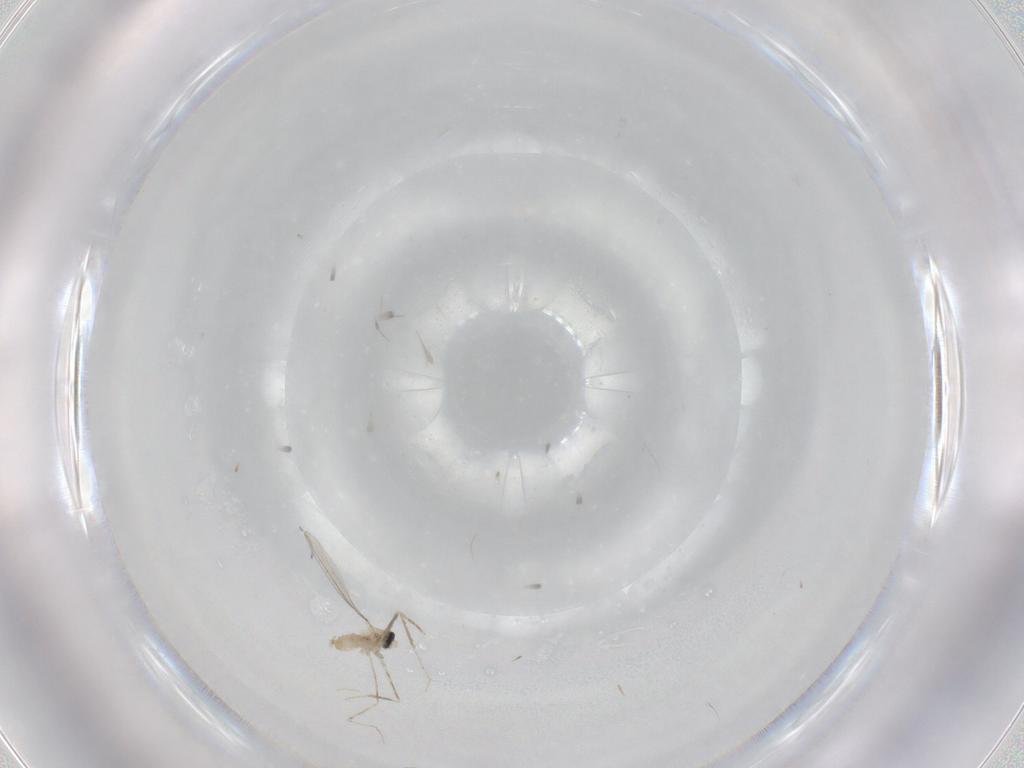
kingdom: Animalia
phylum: Arthropoda
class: Insecta
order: Diptera
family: Cecidomyiidae
